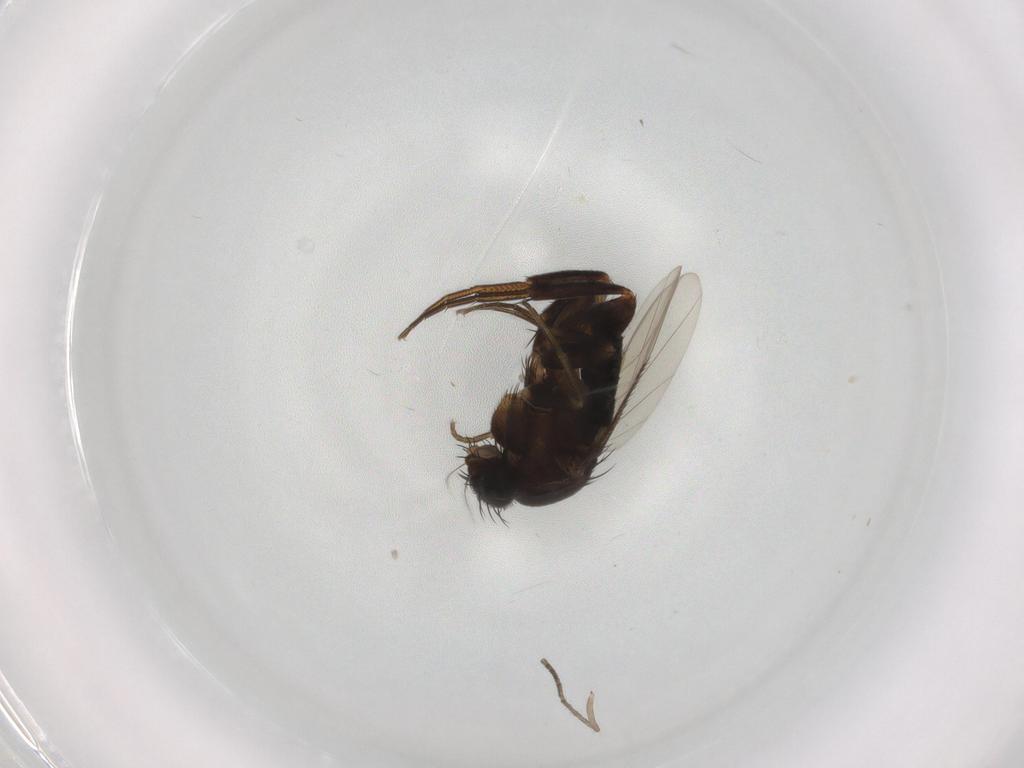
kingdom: Animalia
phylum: Arthropoda
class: Insecta
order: Diptera
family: Phoridae
